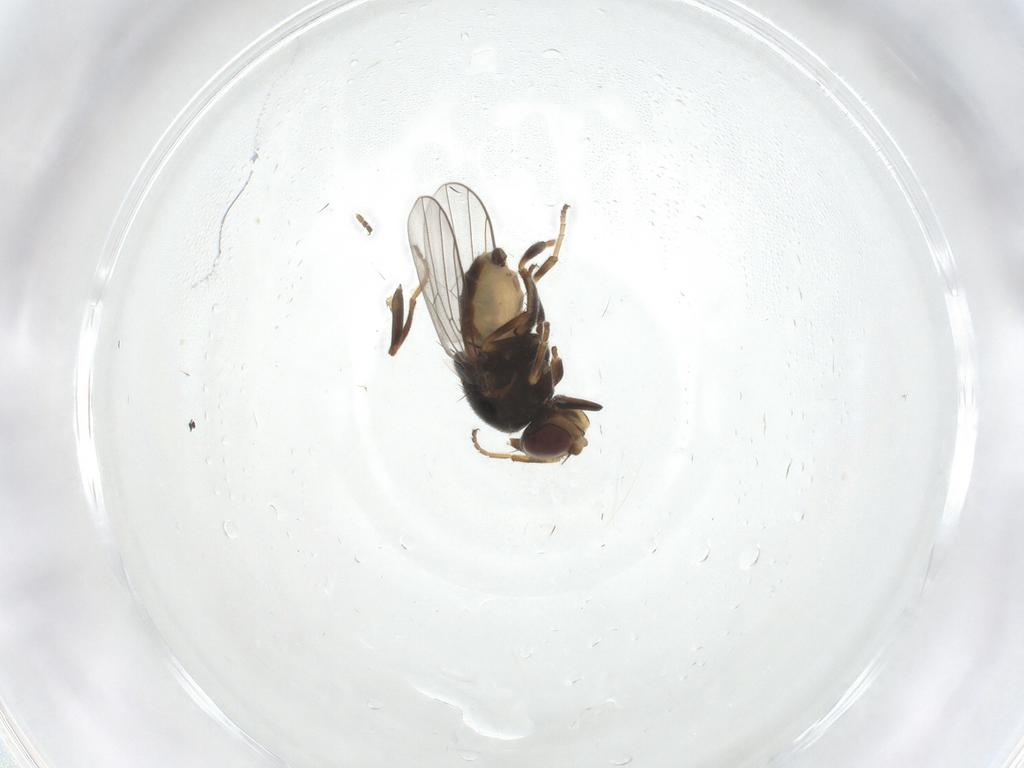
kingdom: Animalia
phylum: Arthropoda
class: Insecta
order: Diptera
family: Chloropidae
